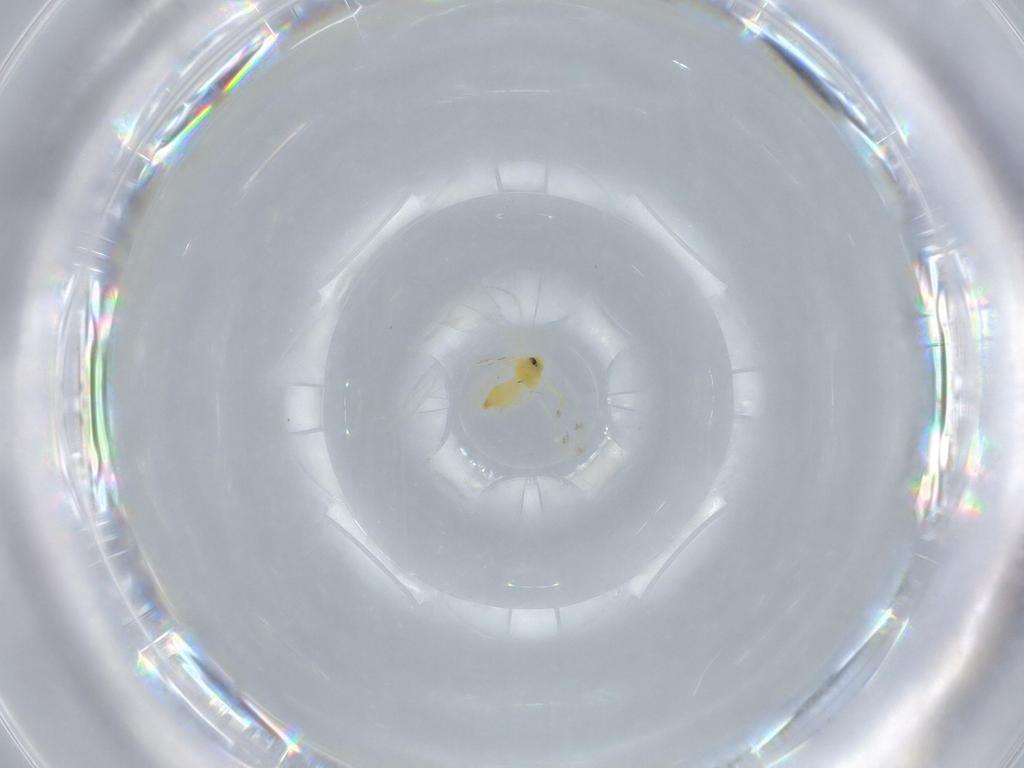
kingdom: Animalia
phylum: Arthropoda
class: Insecta
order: Hemiptera
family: Aleyrodidae
